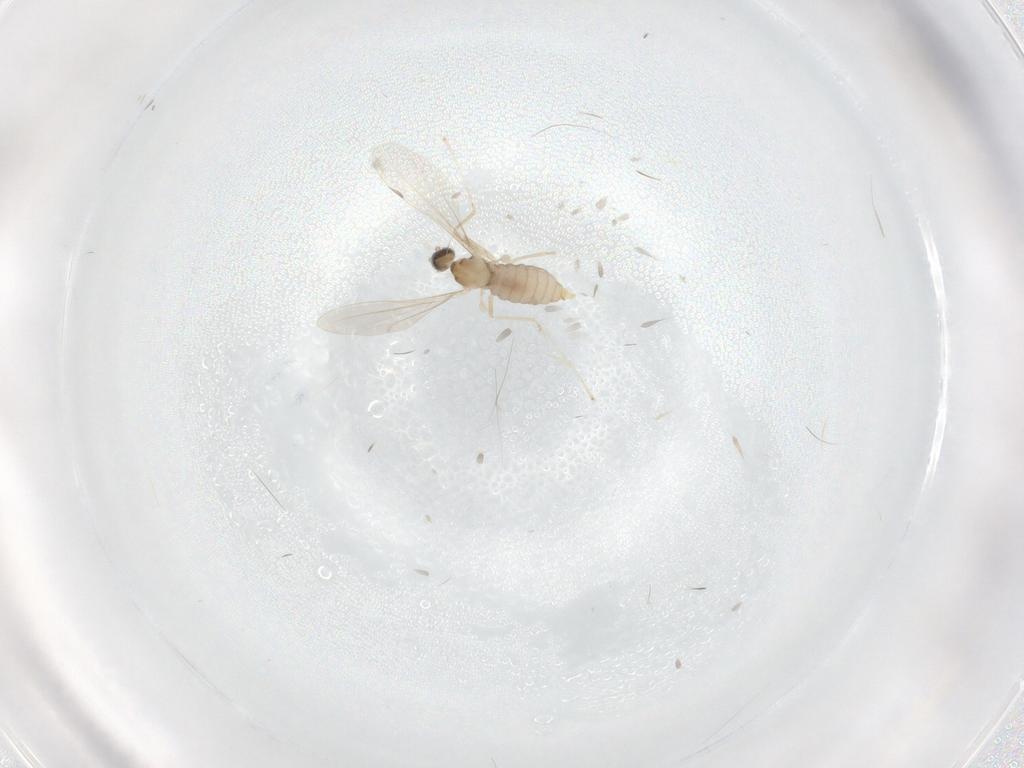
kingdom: Animalia
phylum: Arthropoda
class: Insecta
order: Diptera
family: Cecidomyiidae
